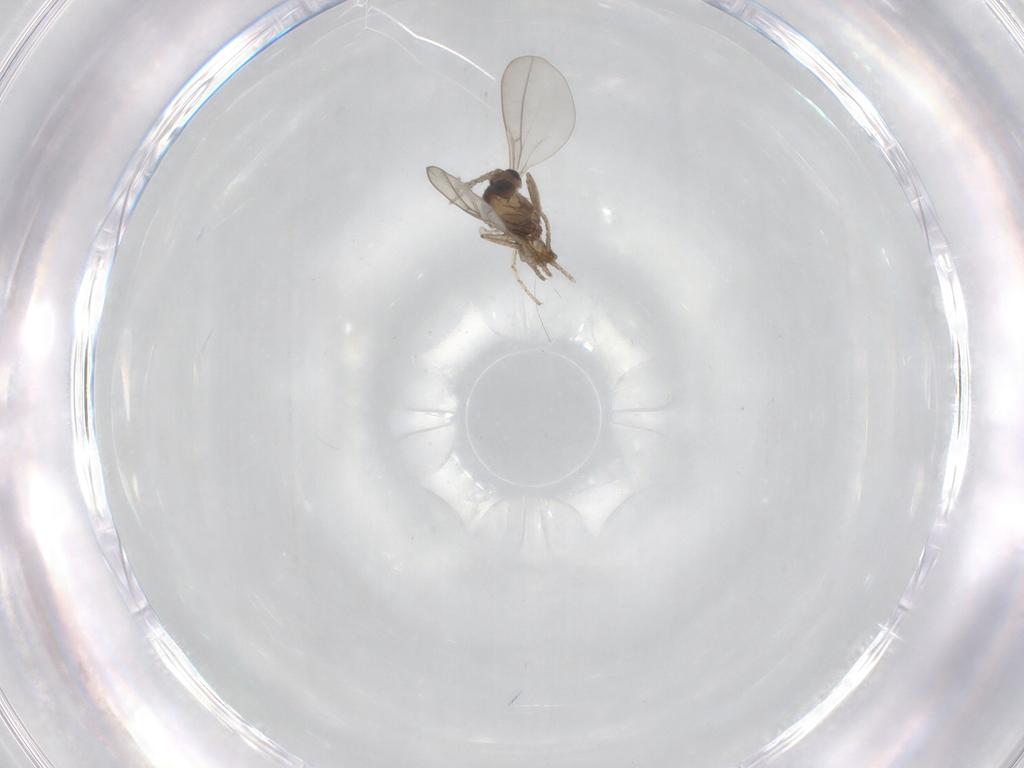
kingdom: Animalia
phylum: Arthropoda
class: Insecta
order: Diptera
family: Cecidomyiidae
